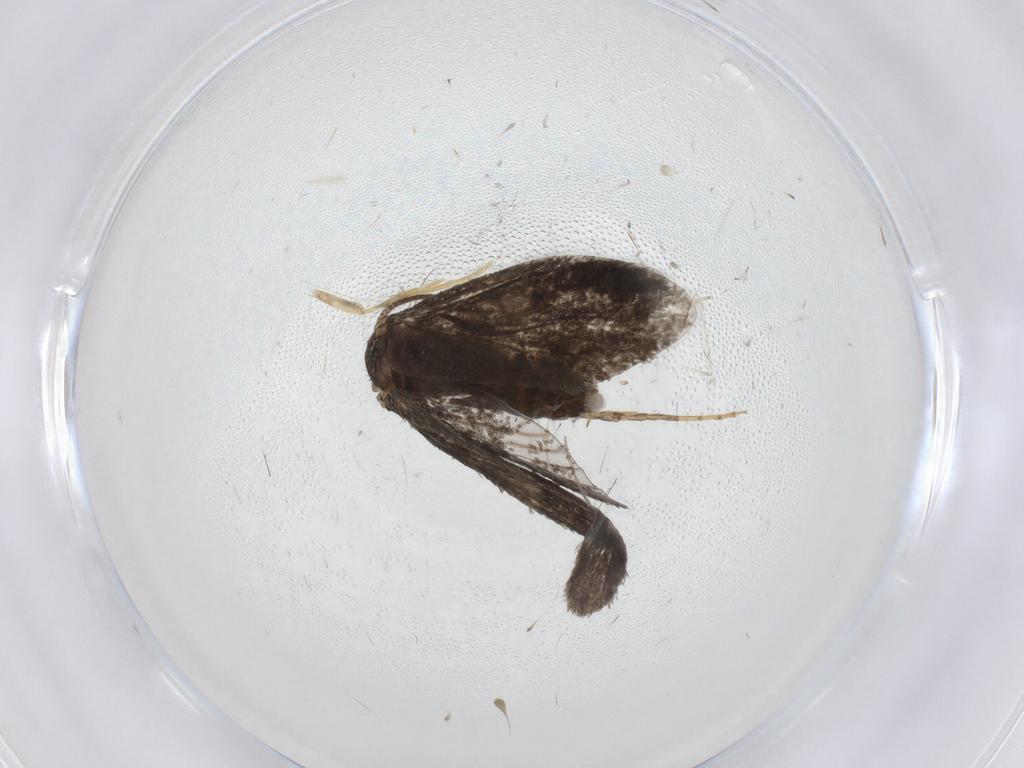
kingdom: Animalia
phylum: Arthropoda
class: Insecta
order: Lepidoptera
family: Micropterigidae
